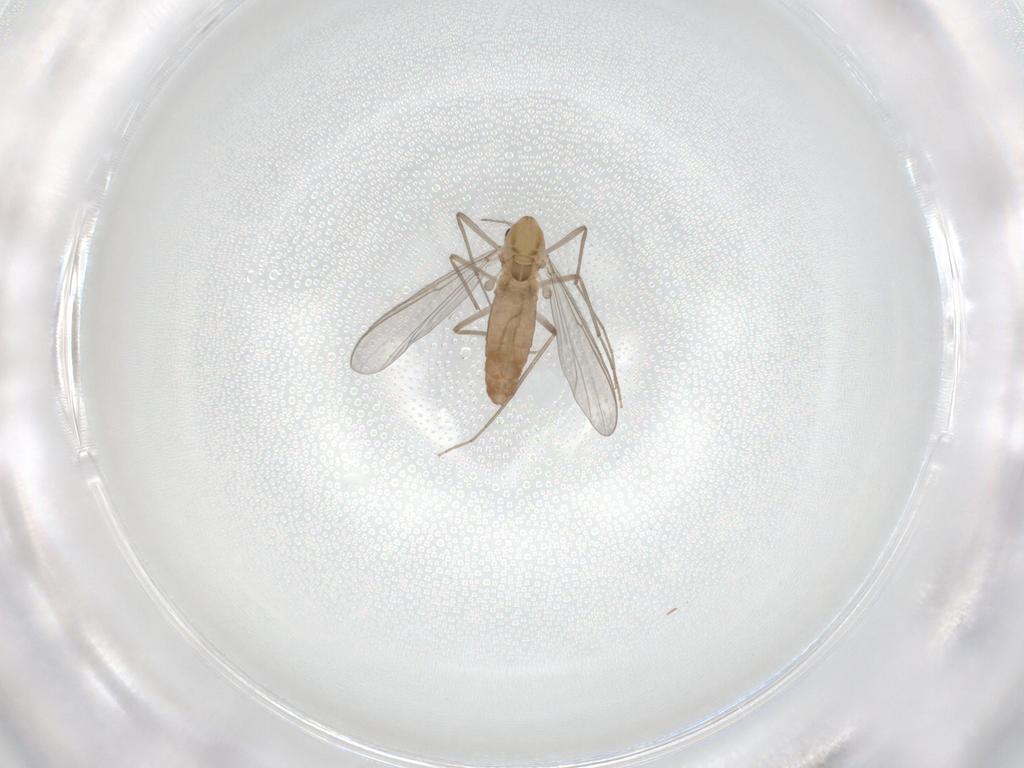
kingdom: Animalia
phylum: Arthropoda
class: Insecta
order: Diptera
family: Chironomidae
